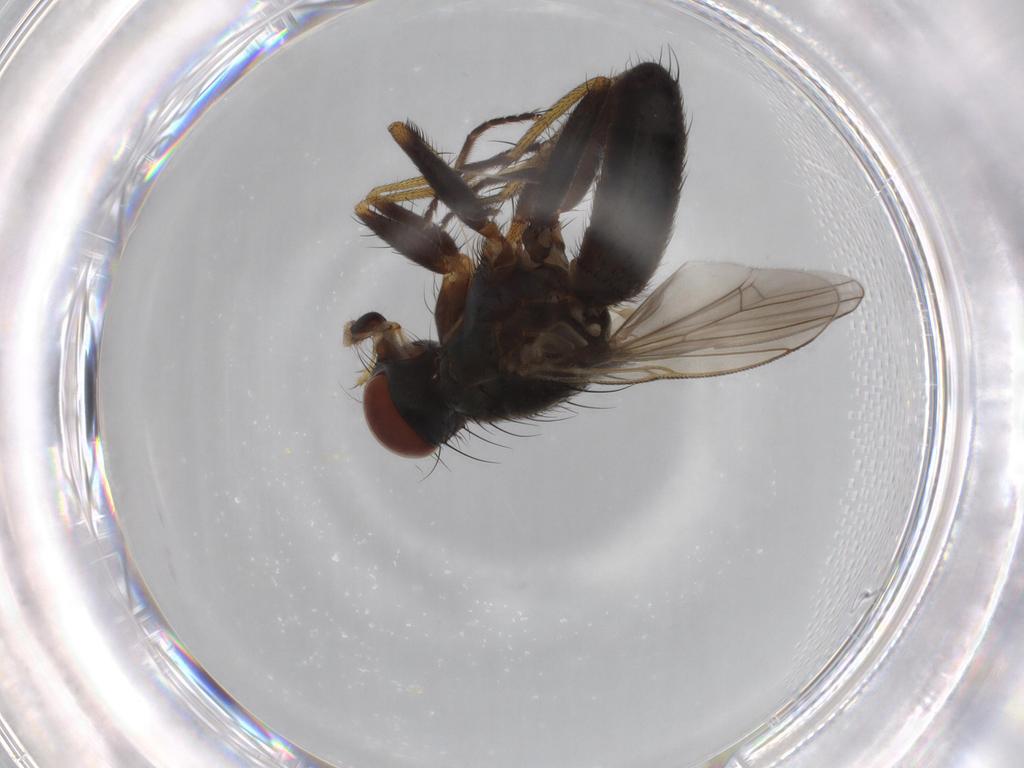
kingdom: Animalia
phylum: Arthropoda
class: Insecta
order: Diptera
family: Muscidae
